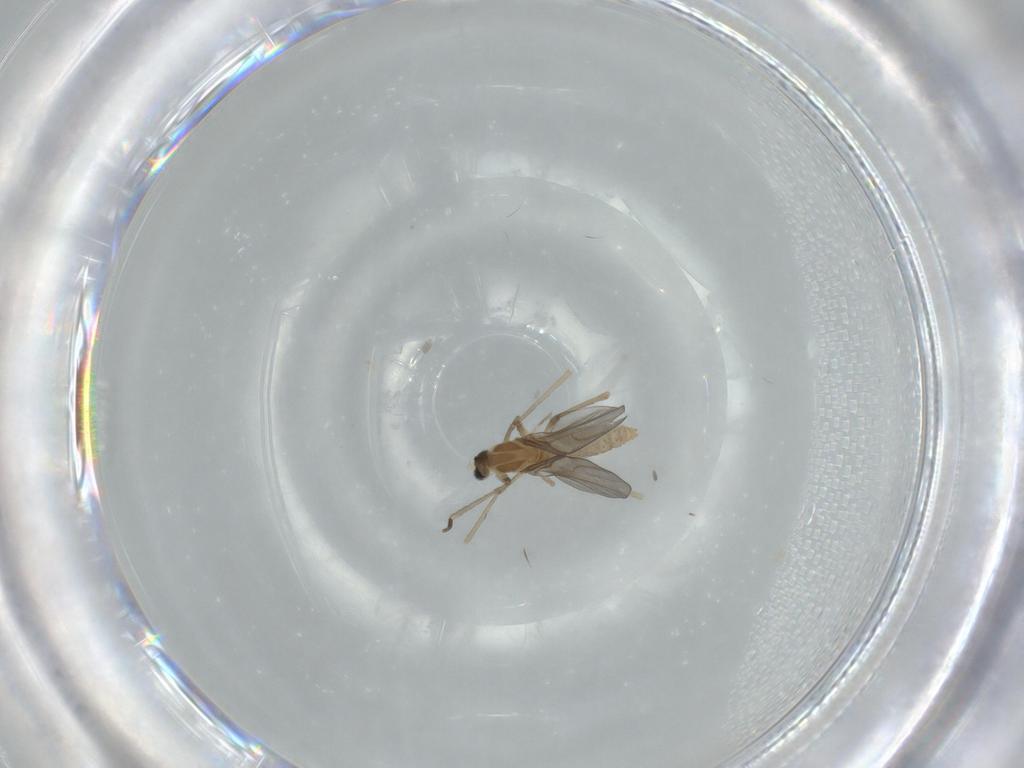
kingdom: Animalia
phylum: Arthropoda
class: Insecta
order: Diptera
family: Cecidomyiidae
